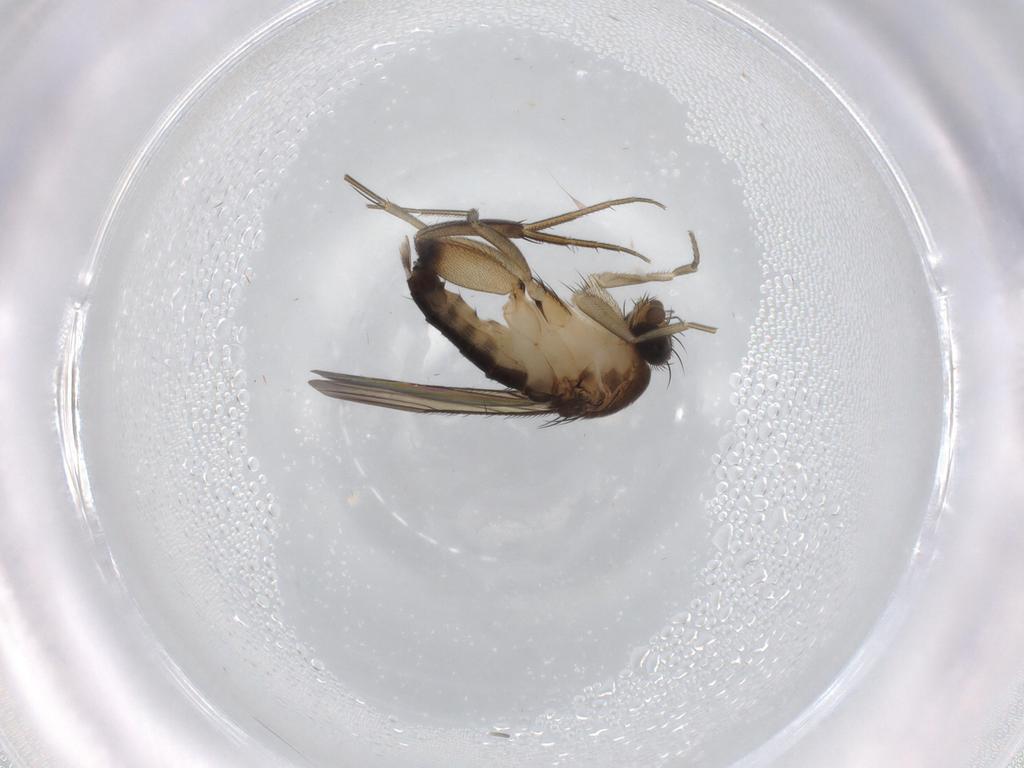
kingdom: Animalia
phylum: Arthropoda
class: Insecta
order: Diptera
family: Phoridae
